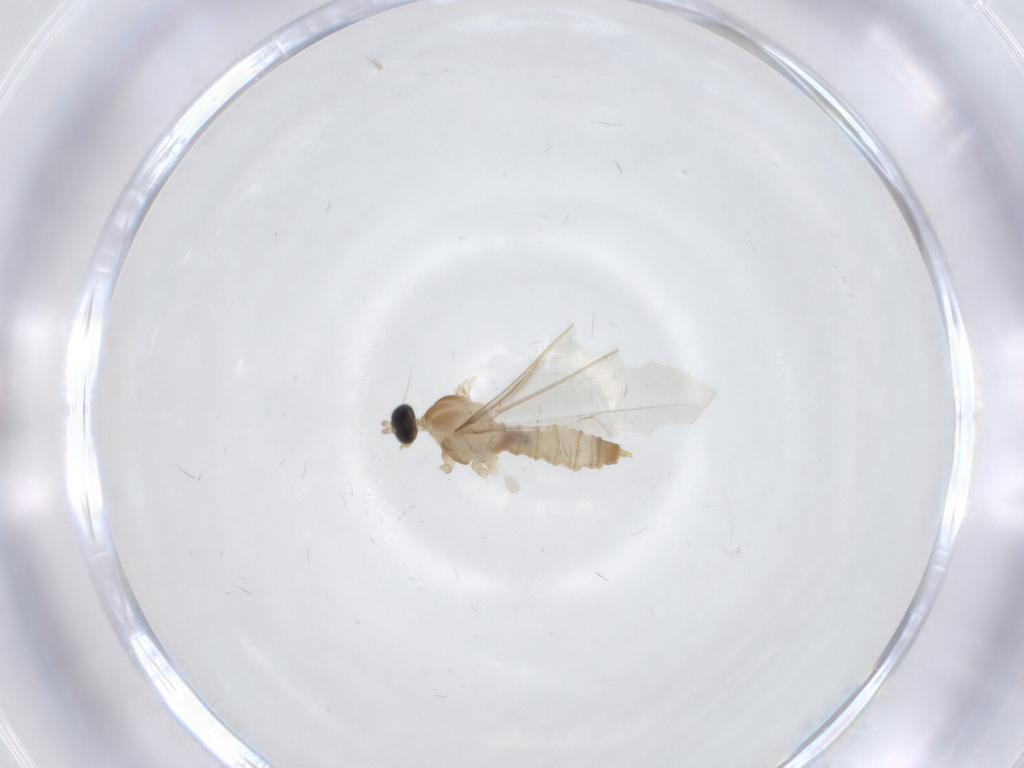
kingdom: Animalia
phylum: Arthropoda
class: Insecta
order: Diptera
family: Cecidomyiidae
